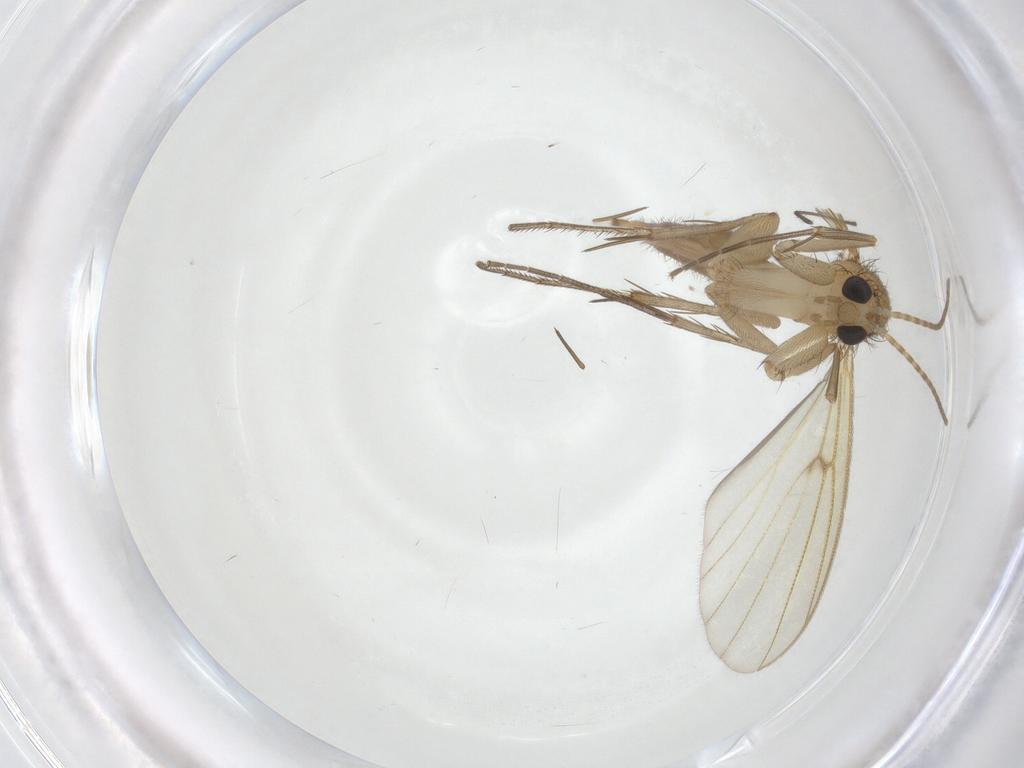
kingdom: Animalia
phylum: Arthropoda
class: Insecta
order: Diptera
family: Mycetophilidae
